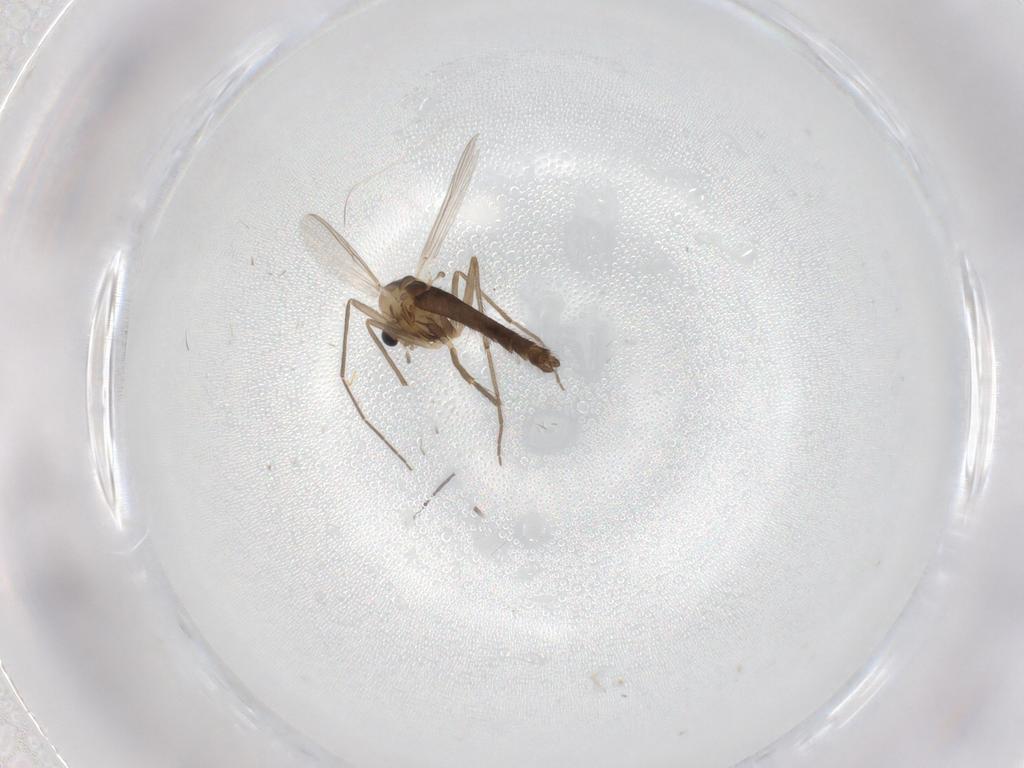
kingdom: Animalia
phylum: Arthropoda
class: Insecta
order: Diptera
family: Chironomidae
